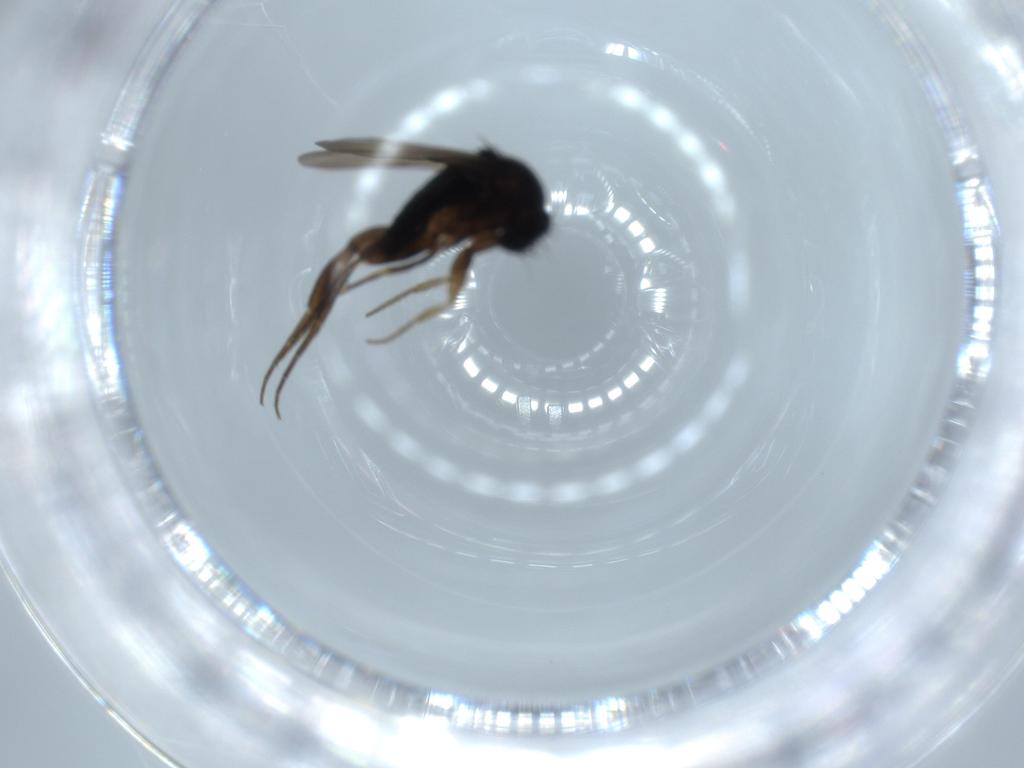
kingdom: Animalia
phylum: Arthropoda
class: Insecta
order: Diptera
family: Phoridae
